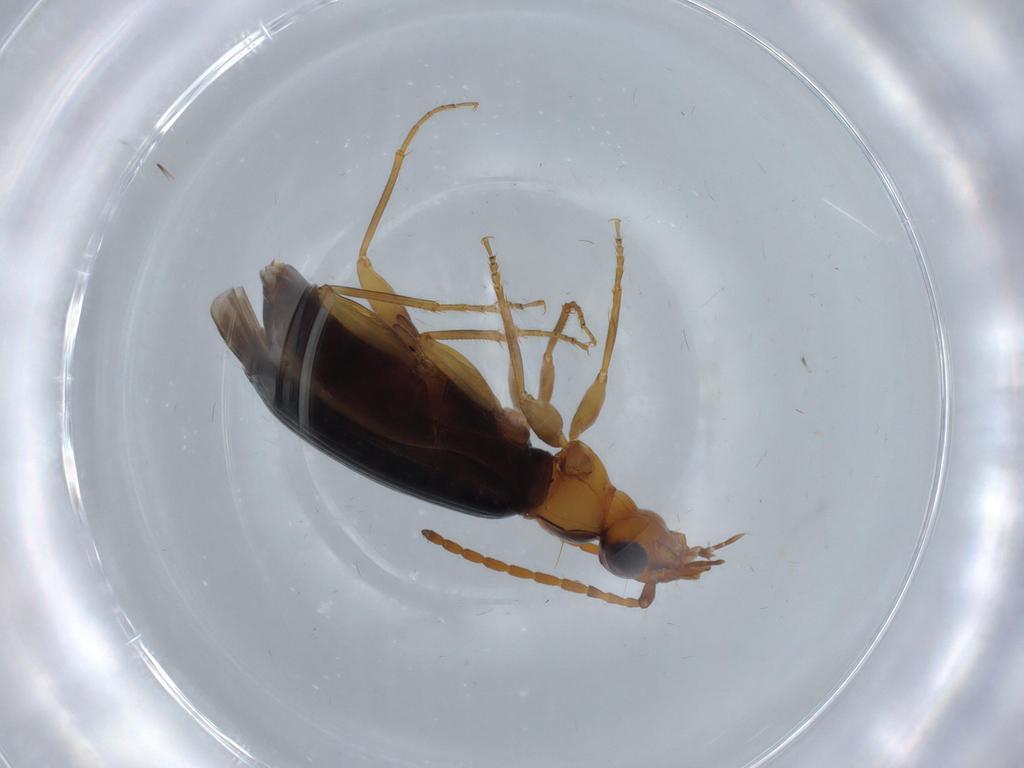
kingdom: Animalia
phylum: Arthropoda
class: Insecta
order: Coleoptera
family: Carabidae
